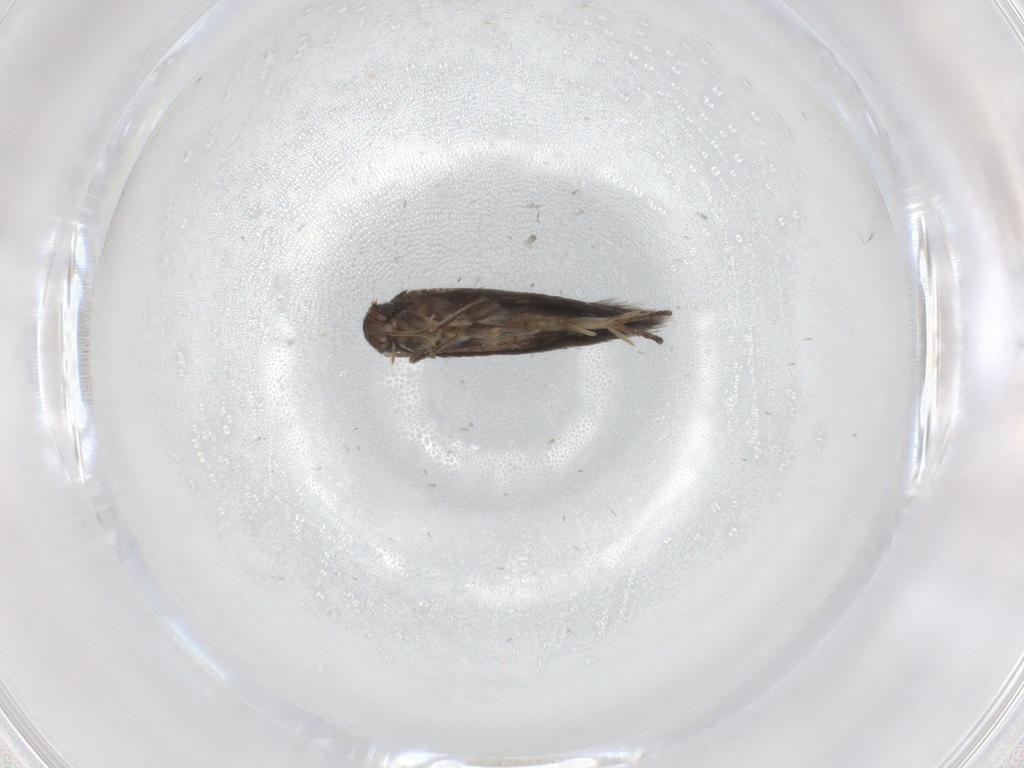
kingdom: Animalia
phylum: Arthropoda
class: Insecta
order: Lepidoptera
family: Heliozelidae
